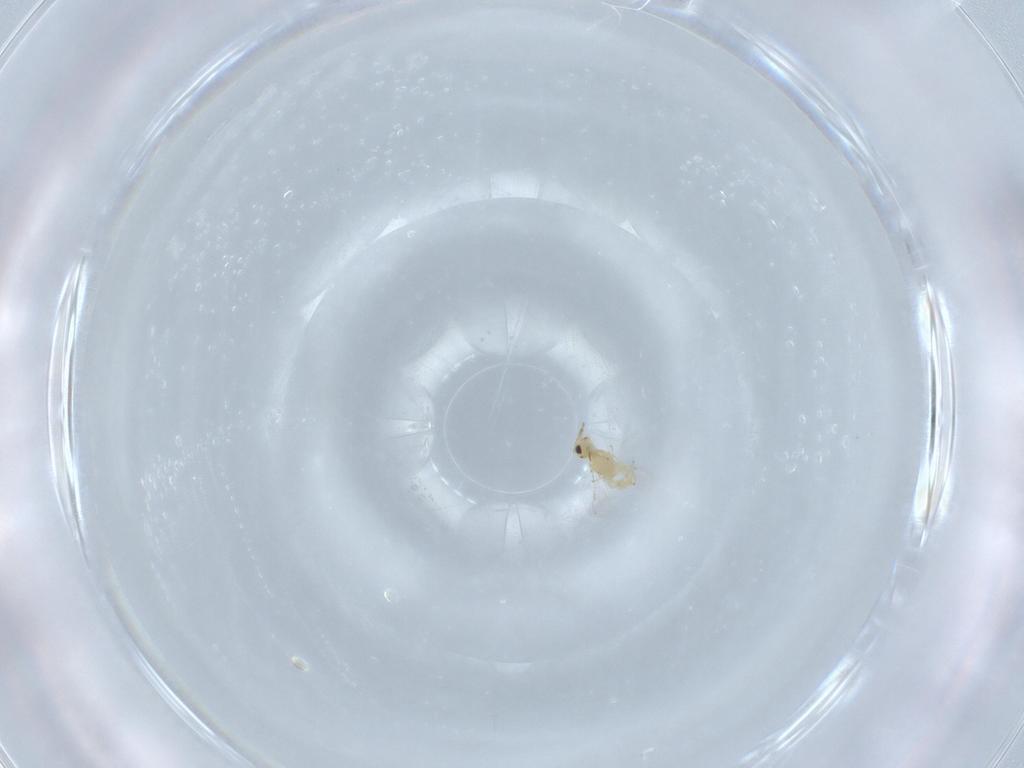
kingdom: Animalia
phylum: Arthropoda
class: Insecta
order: Hymenoptera
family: Crabronidae
